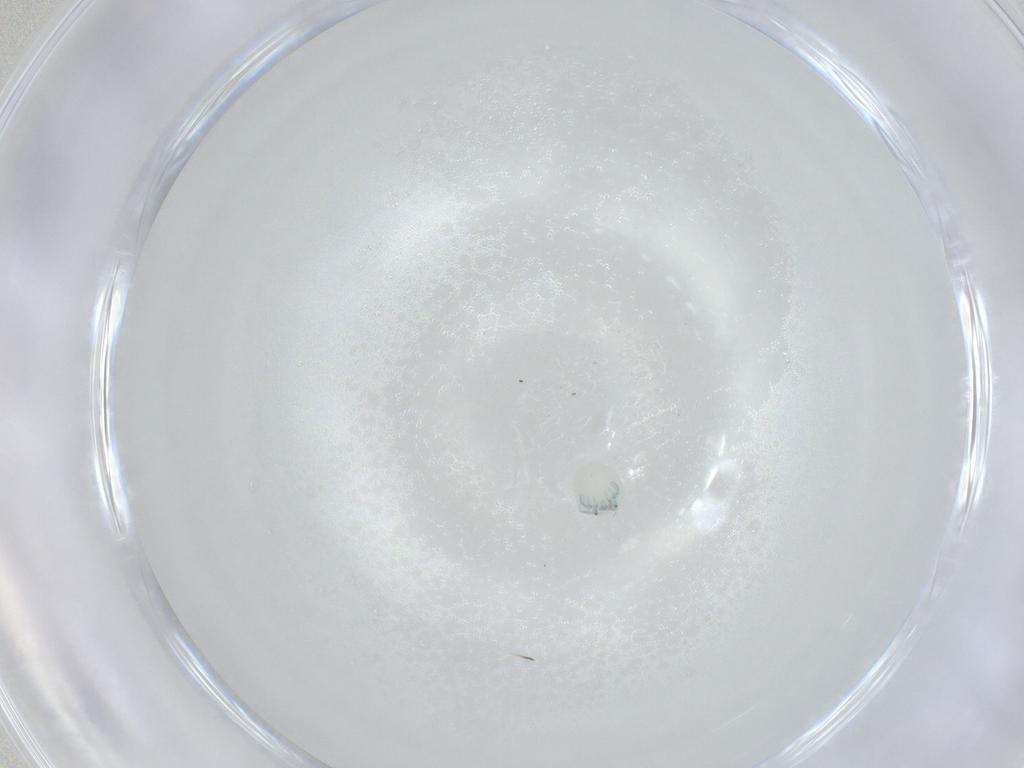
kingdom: Animalia
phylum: Arthropoda
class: Arachnida
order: Trombidiformes
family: Arrenuridae
